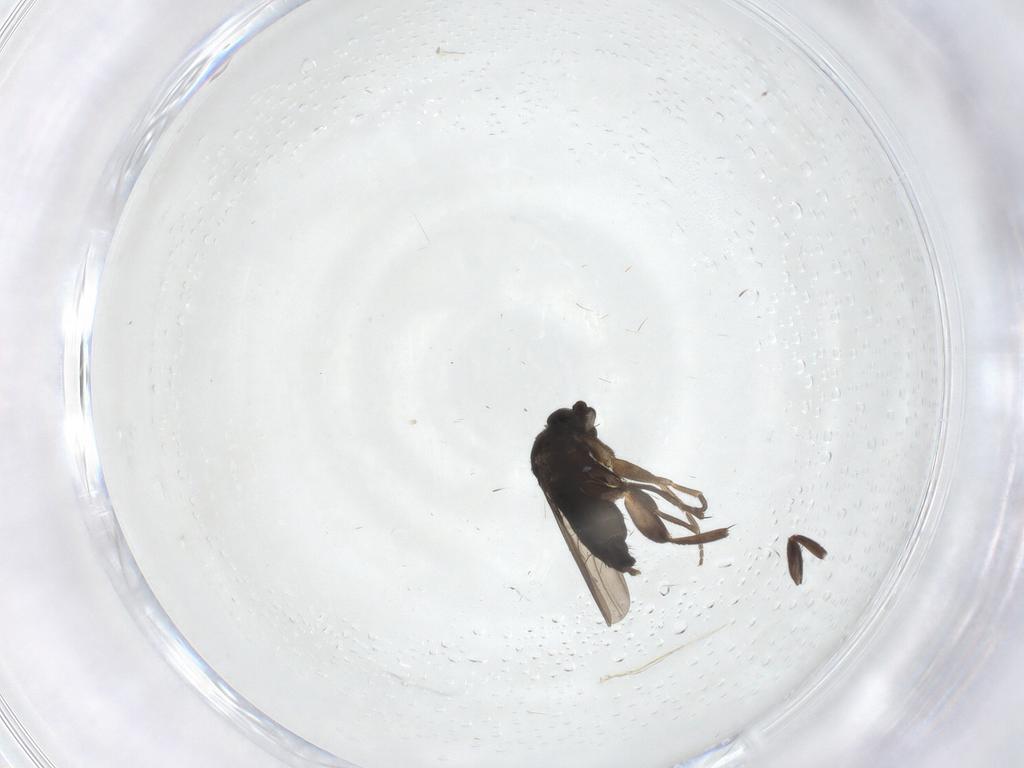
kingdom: Animalia
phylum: Arthropoda
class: Insecta
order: Diptera
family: Phoridae
